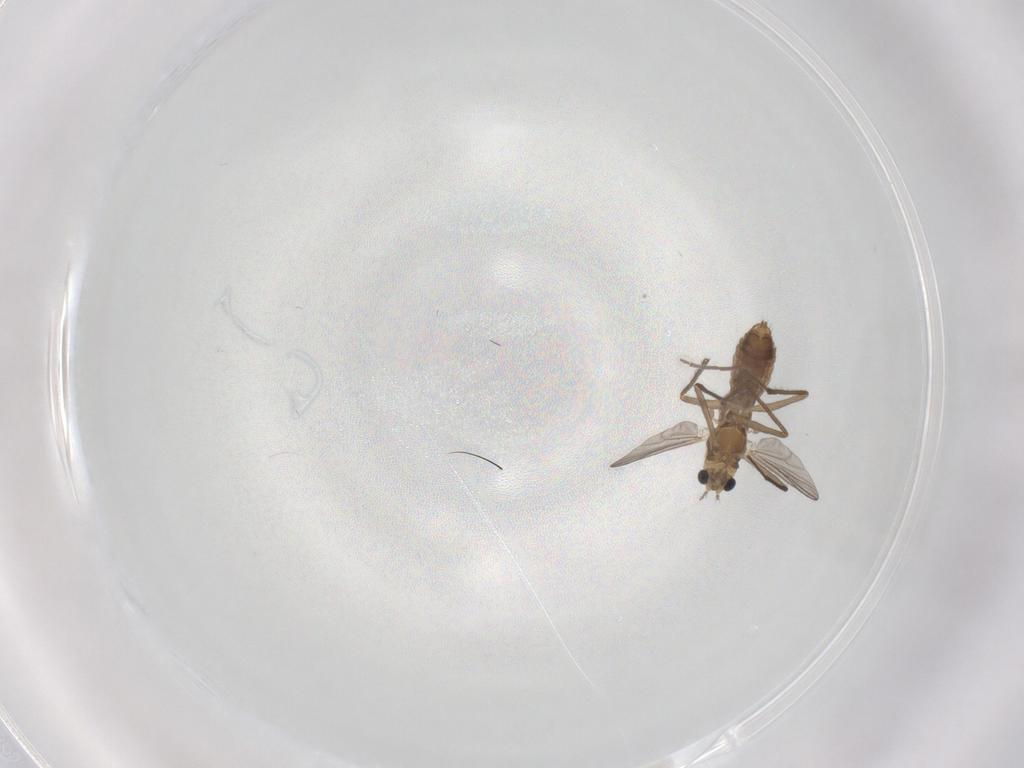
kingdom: Animalia
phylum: Arthropoda
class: Insecta
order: Diptera
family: Chironomidae
